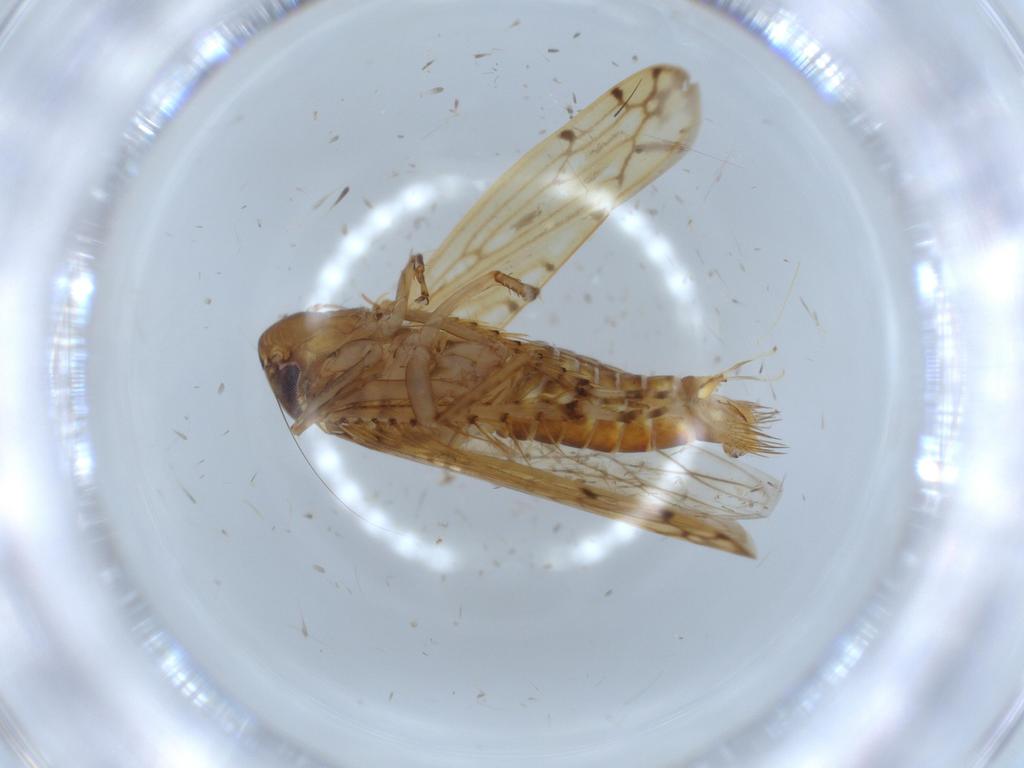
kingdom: Animalia
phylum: Arthropoda
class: Insecta
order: Hemiptera
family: Cicadellidae
